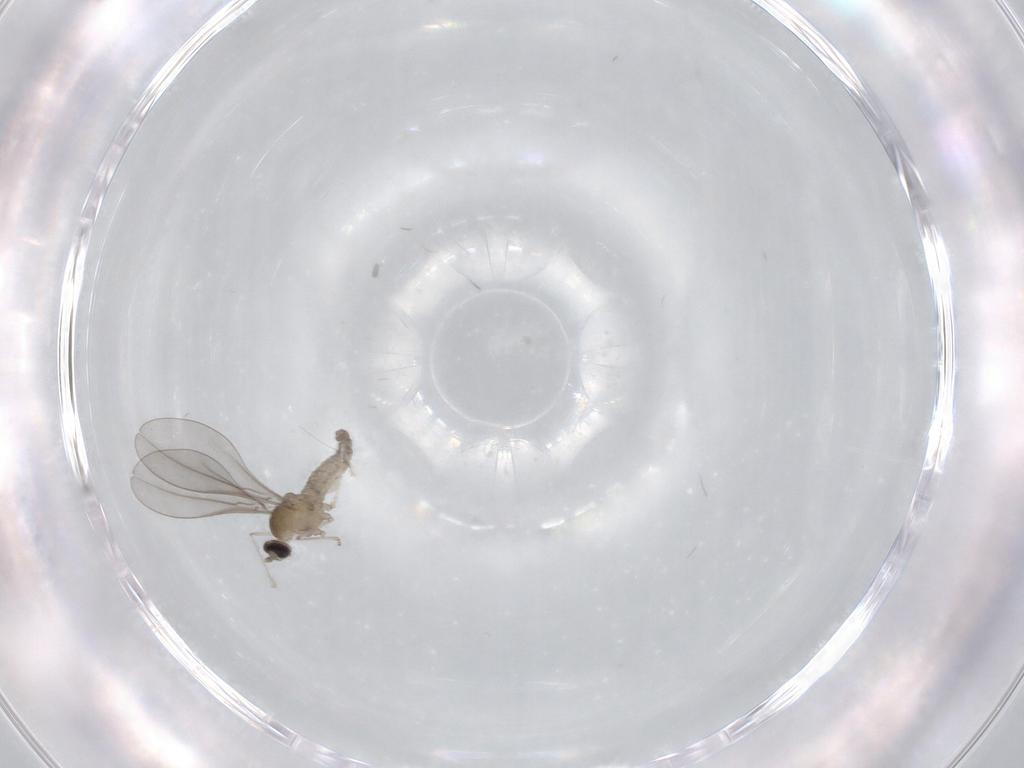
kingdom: Animalia
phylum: Arthropoda
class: Insecta
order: Diptera
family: Cecidomyiidae
